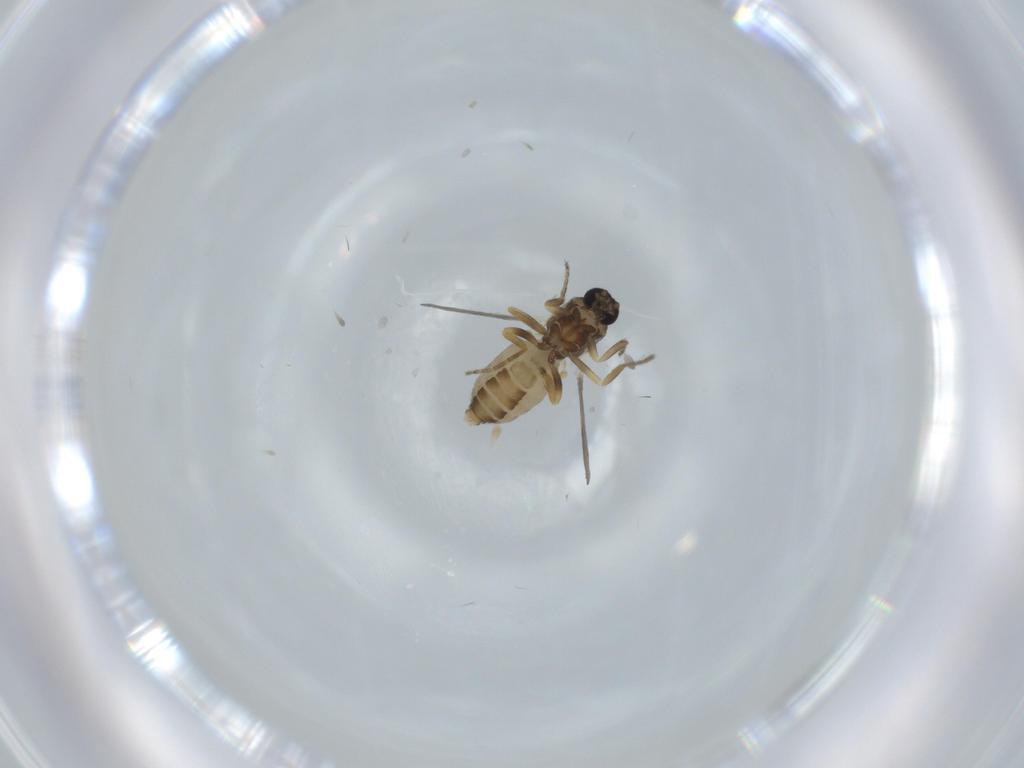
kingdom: Animalia
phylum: Arthropoda
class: Insecta
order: Diptera
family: Ceratopogonidae
